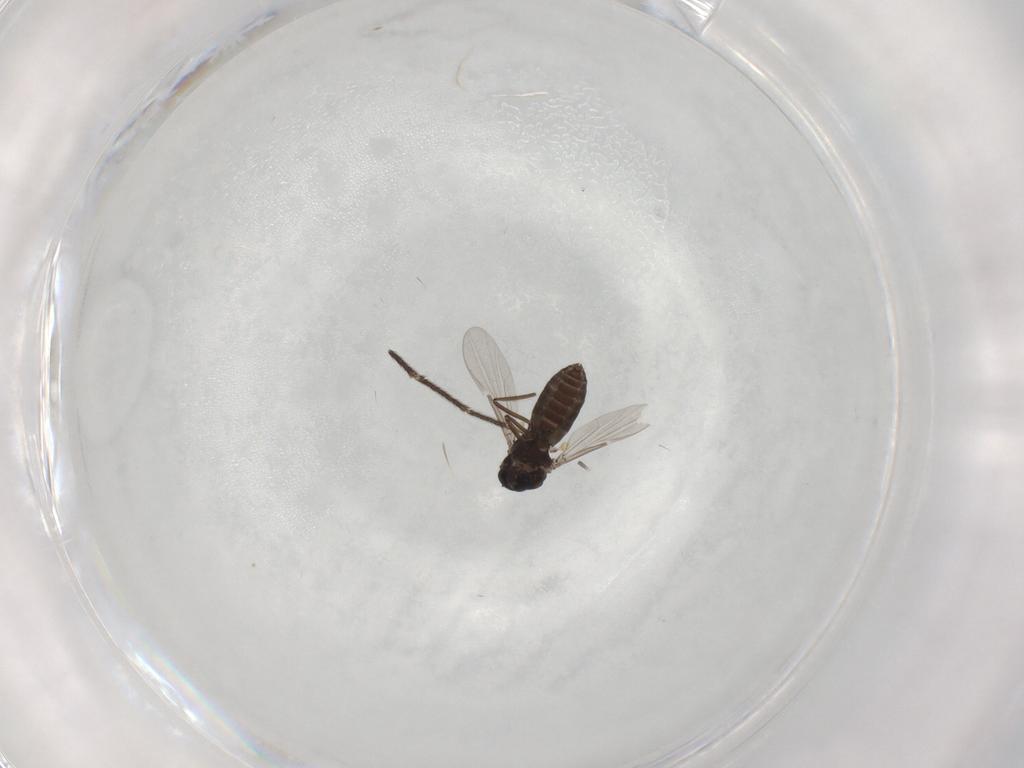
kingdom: Animalia
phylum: Arthropoda
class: Insecta
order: Diptera
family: Ceratopogonidae
